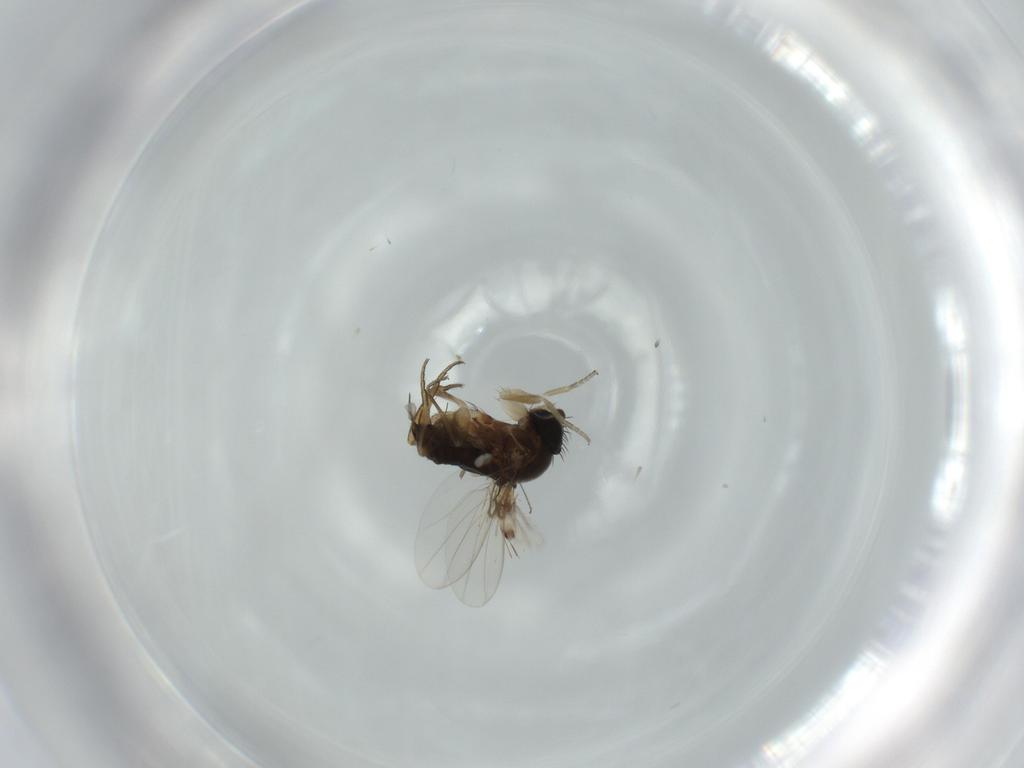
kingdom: Animalia
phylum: Arthropoda
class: Insecta
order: Diptera
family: Cecidomyiidae
